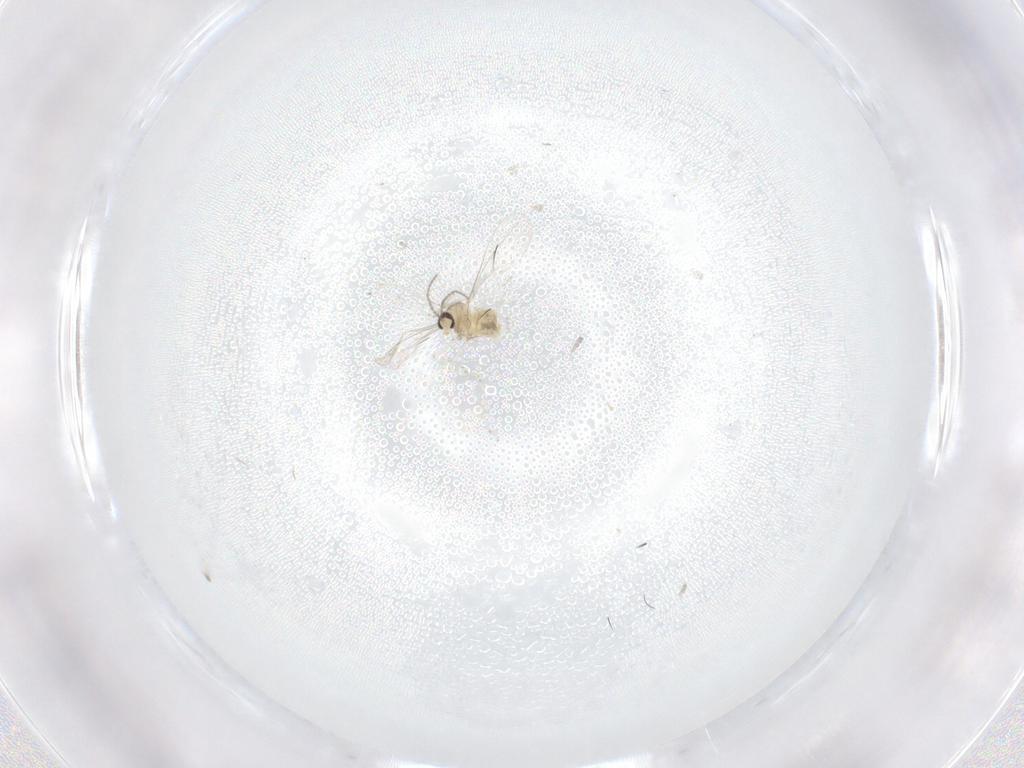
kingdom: Animalia
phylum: Arthropoda
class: Insecta
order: Diptera
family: Cecidomyiidae
